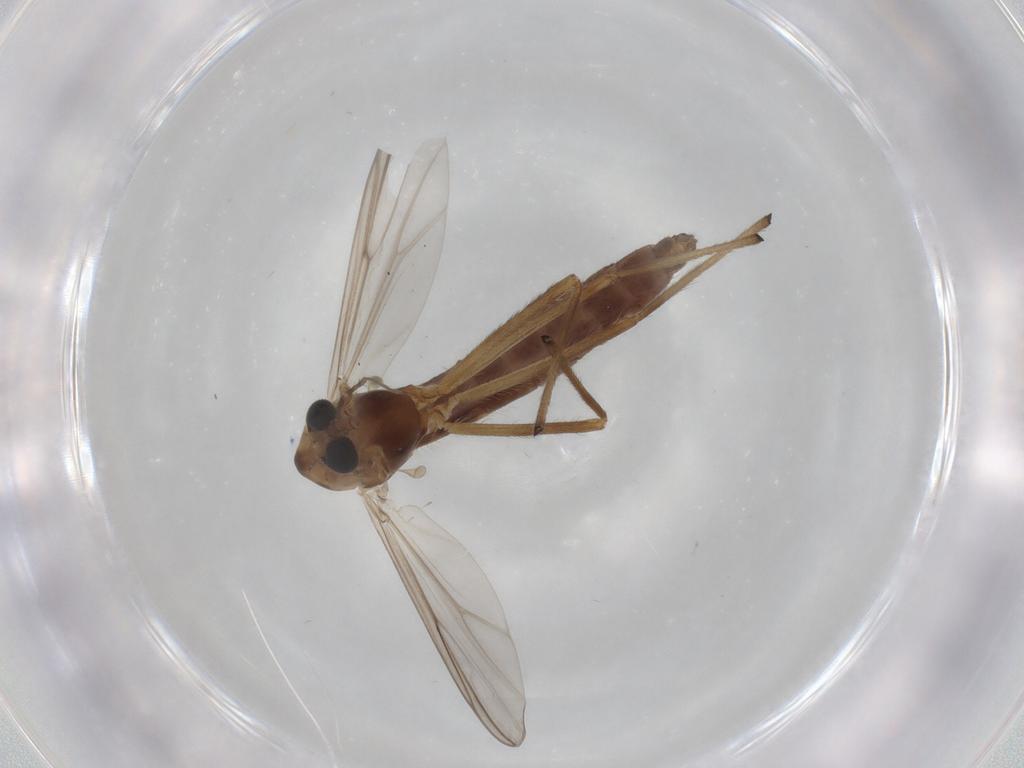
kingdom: Animalia
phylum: Arthropoda
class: Insecta
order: Diptera
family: Chironomidae
